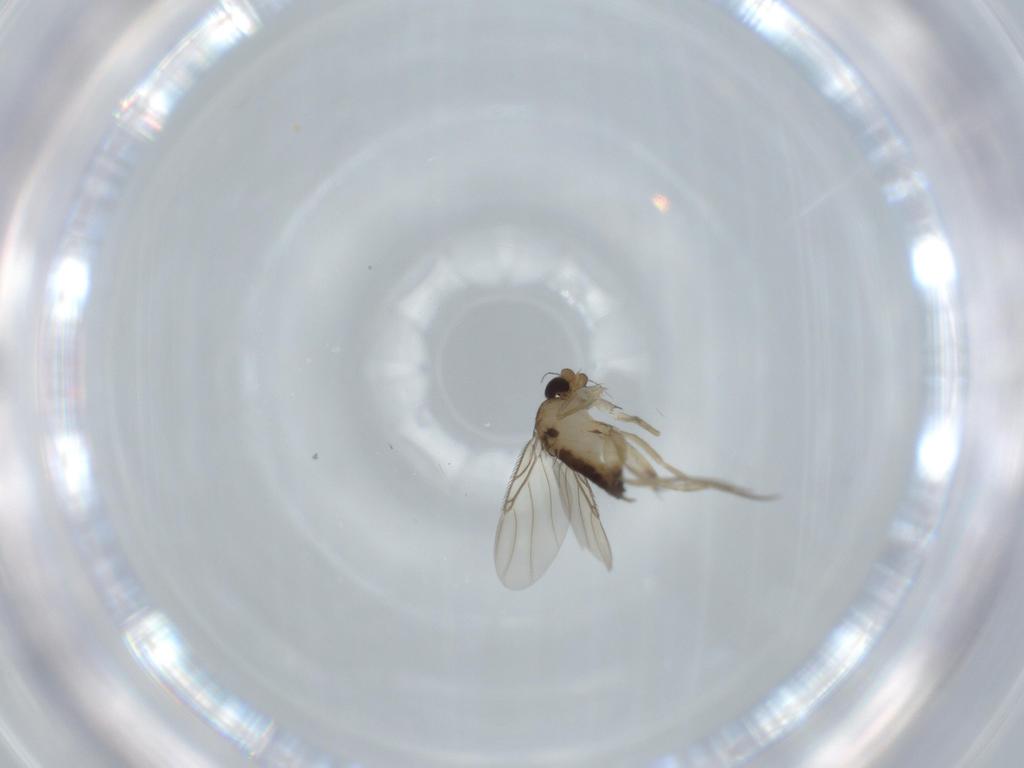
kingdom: Animalia
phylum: Arthropoda
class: Insecta
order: Diptera
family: Phoridae
